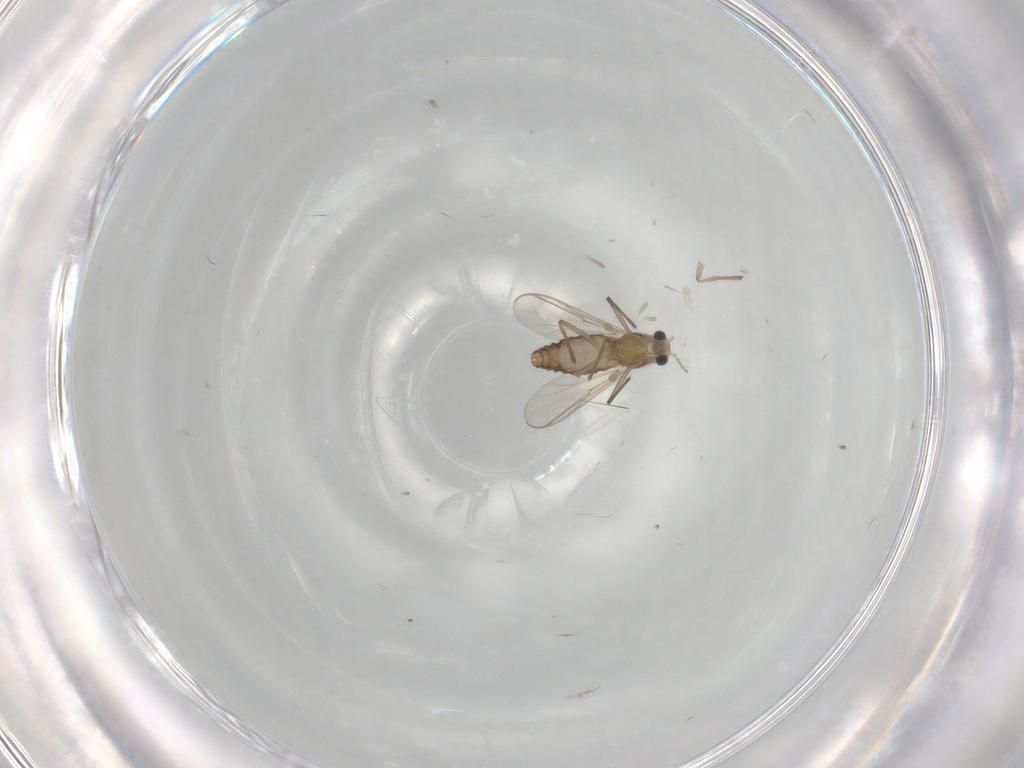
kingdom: Animalia
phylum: Arthropoda
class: Insecta
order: Diptera
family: Chironomidae
